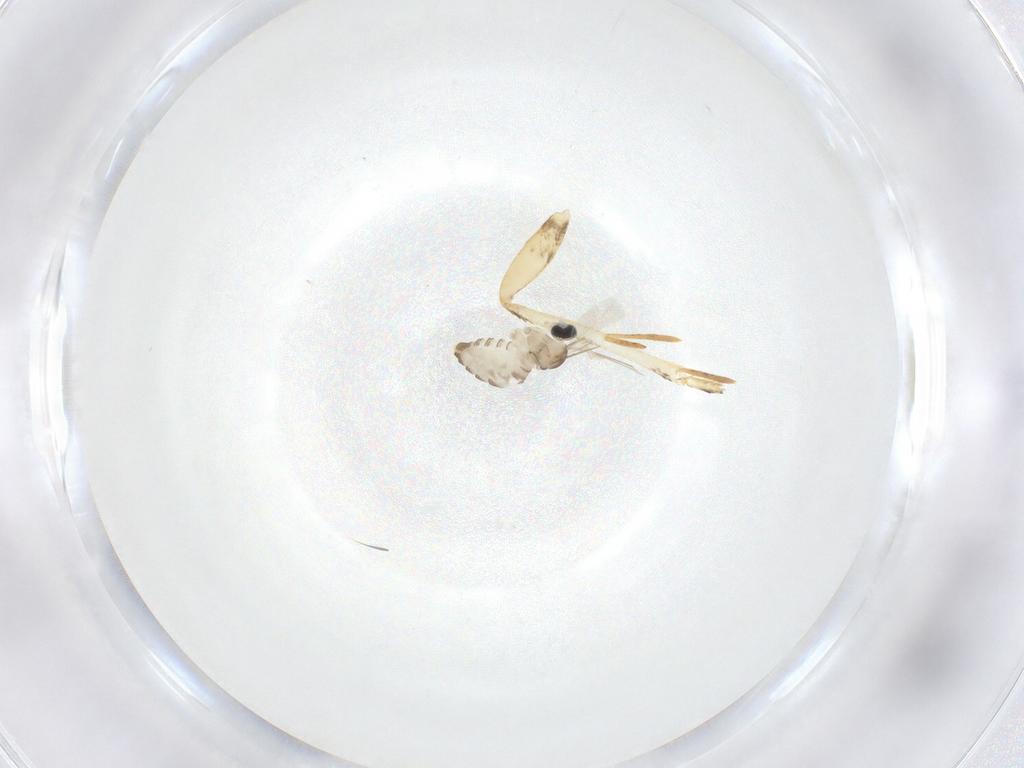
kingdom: Animalia
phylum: Arthropoda
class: Insecta
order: Diptera
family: Cecidomyiidae
